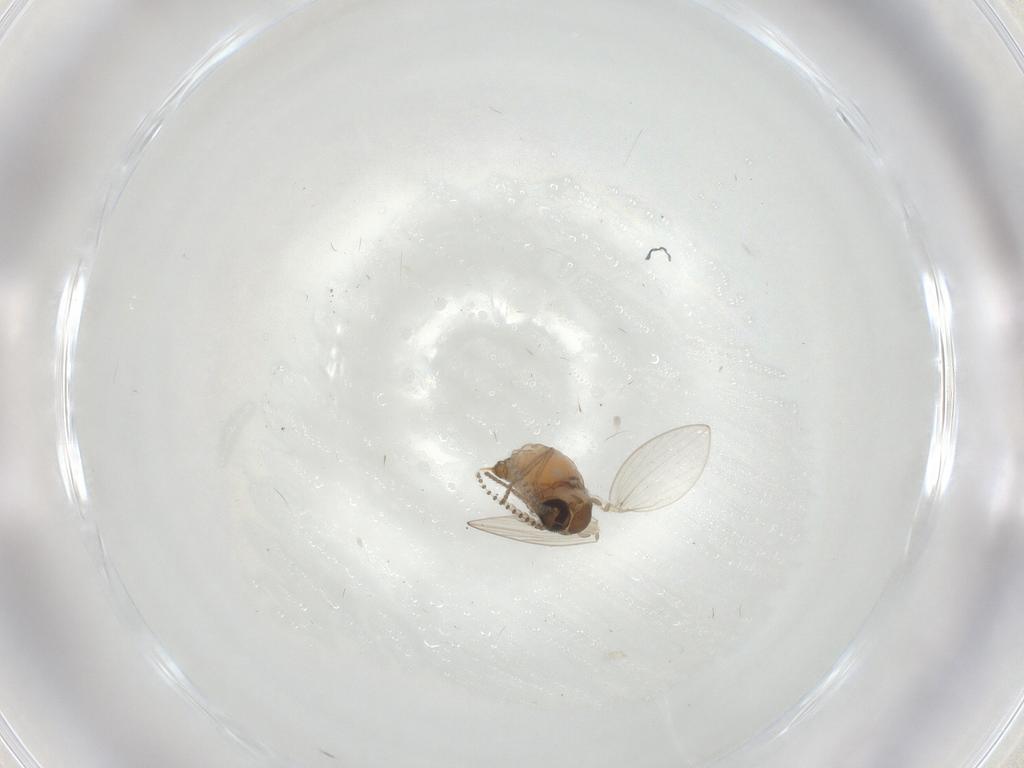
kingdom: Animalia
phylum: Arthropoda
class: Insecta
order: Diptera
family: Psychodidae
